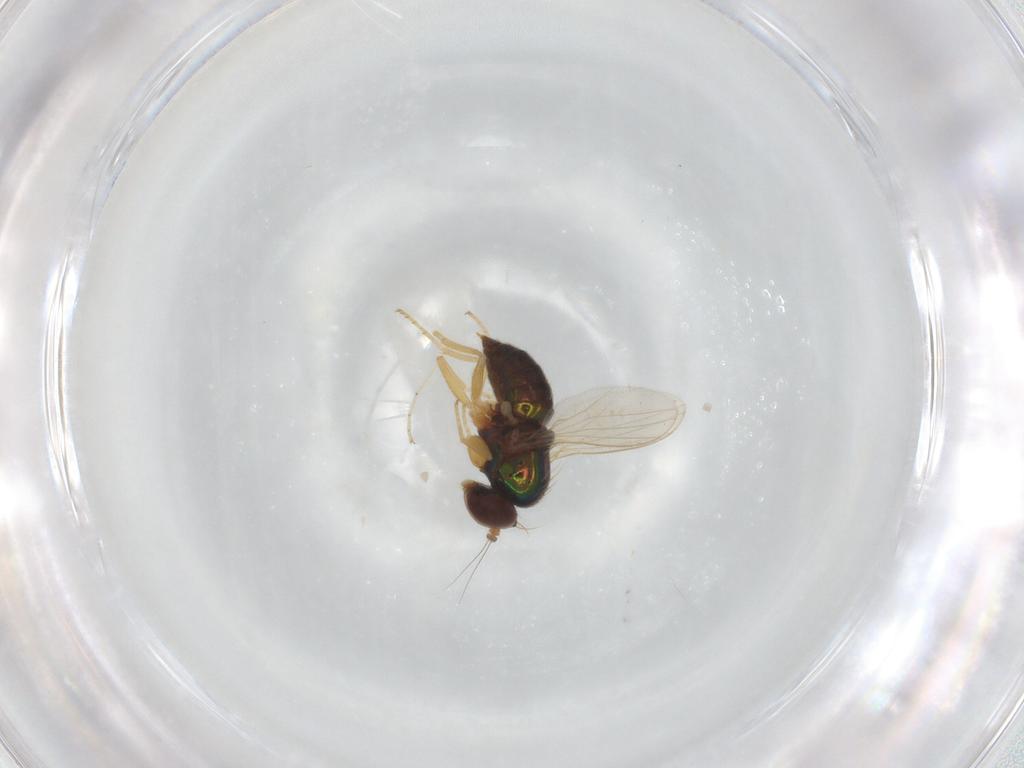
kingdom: Animalia
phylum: Arthropoda
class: Insecta
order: Diptera
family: Dolichopodidae
